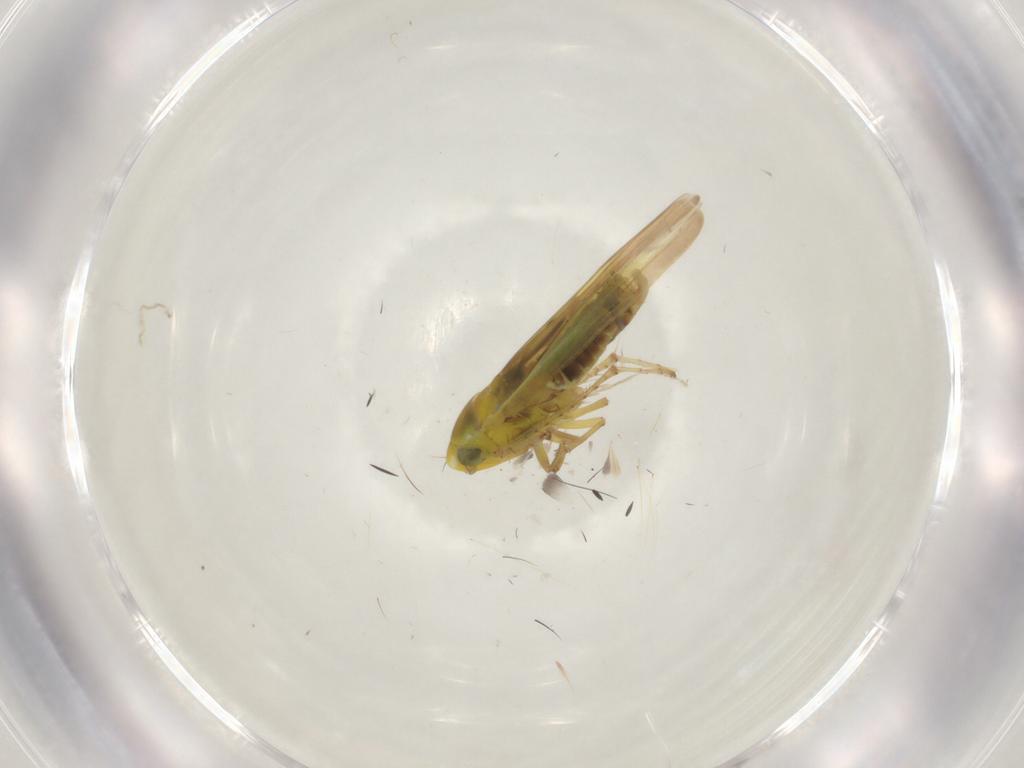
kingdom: Animalia
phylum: Arthropoda
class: Insecta
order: Hemiptera
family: Cicadellidae
